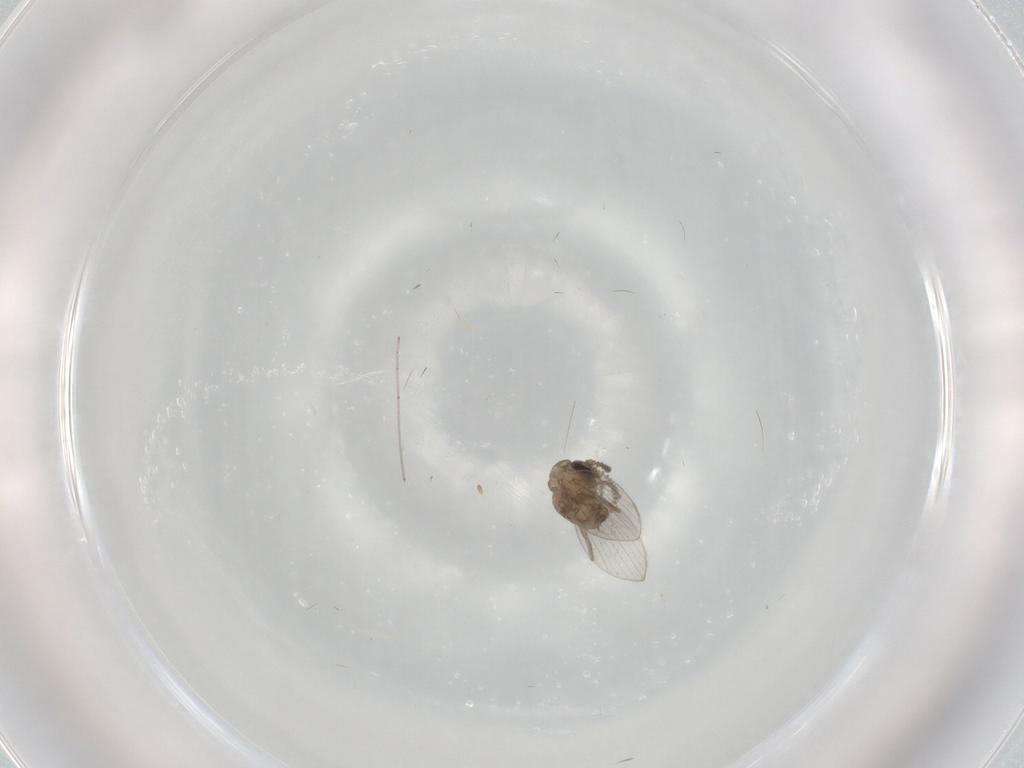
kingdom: Animalia
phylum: Arthropoda
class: Insecta
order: Diptera
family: Psychodidae
